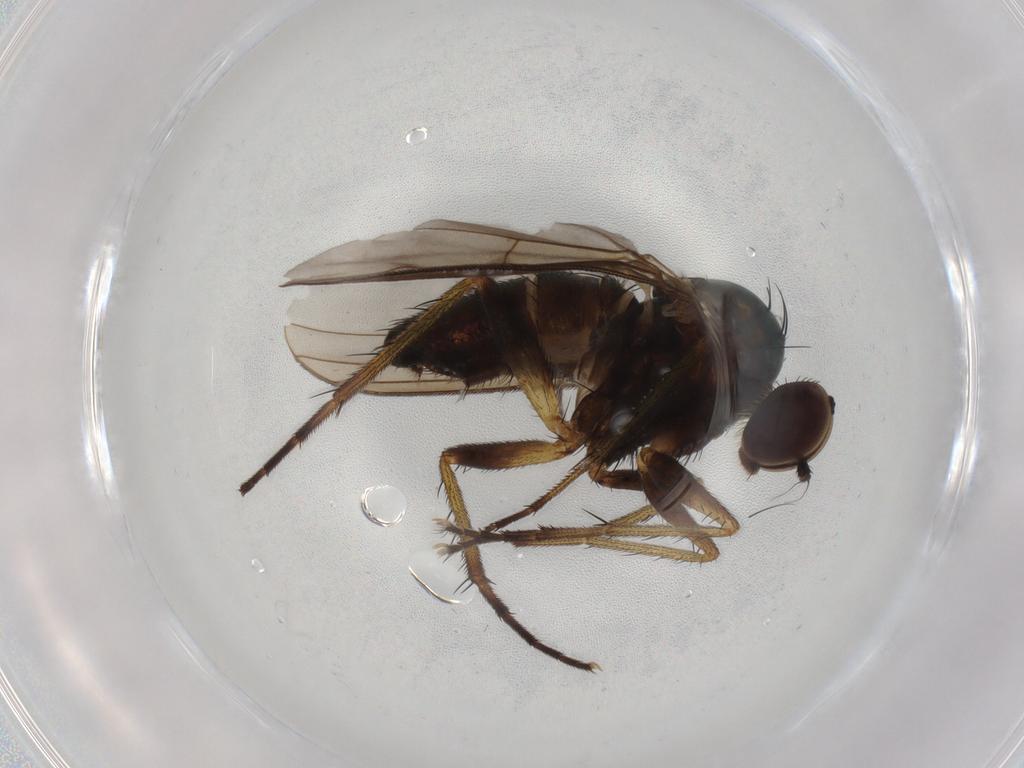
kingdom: Animalia
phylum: Arthropoda
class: Insecta
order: Diptera
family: Dolichopodidae
